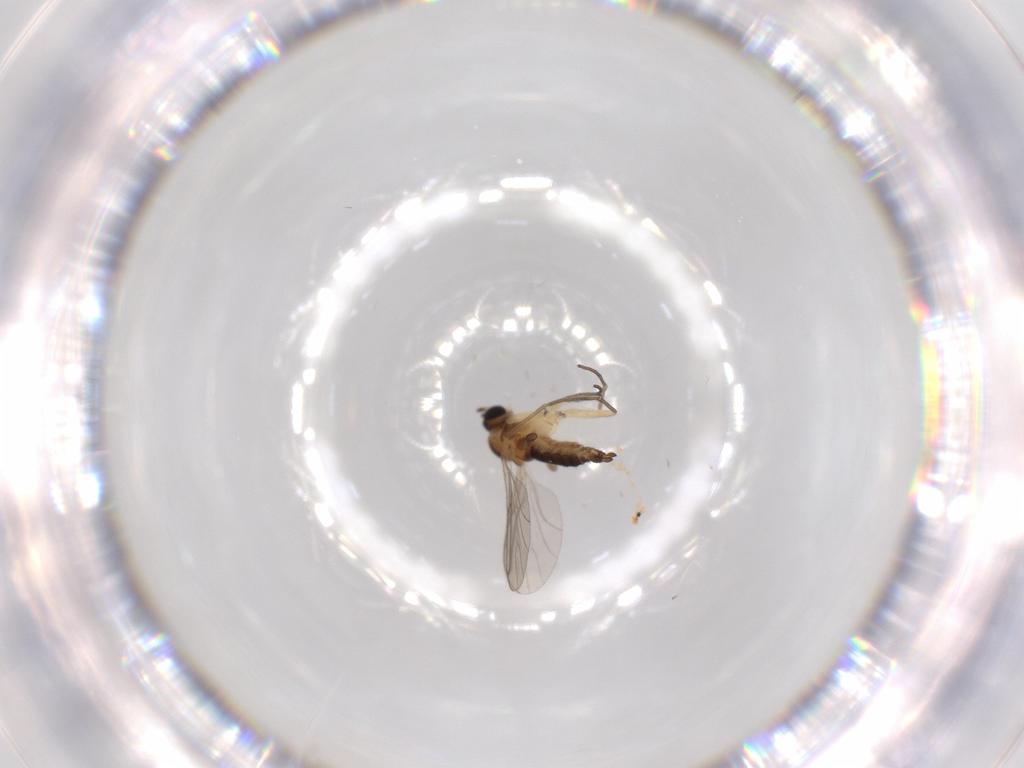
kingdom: Animalia
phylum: Arthropoda
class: Insecta
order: Diptera
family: Sciaridae
